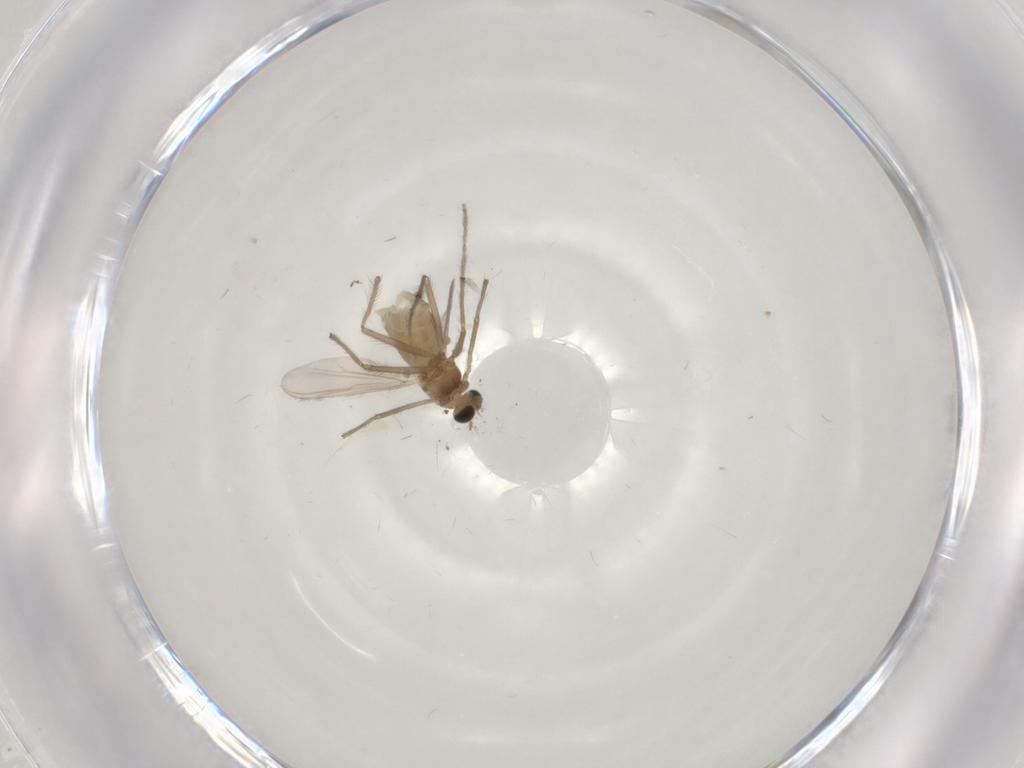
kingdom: Animalia
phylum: Arthropoda
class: Insecta
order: Diptera
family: Chironomidae
